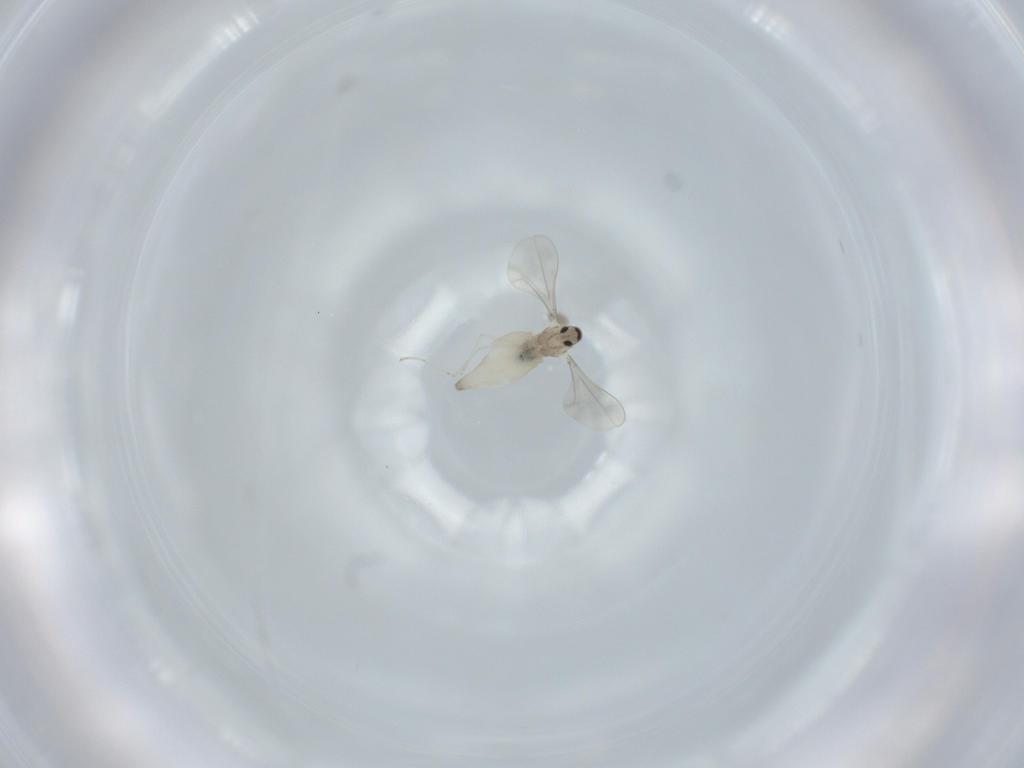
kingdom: Animalia
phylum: Arthropoda
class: Insecta
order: Diptera
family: Cecidomyiidae
